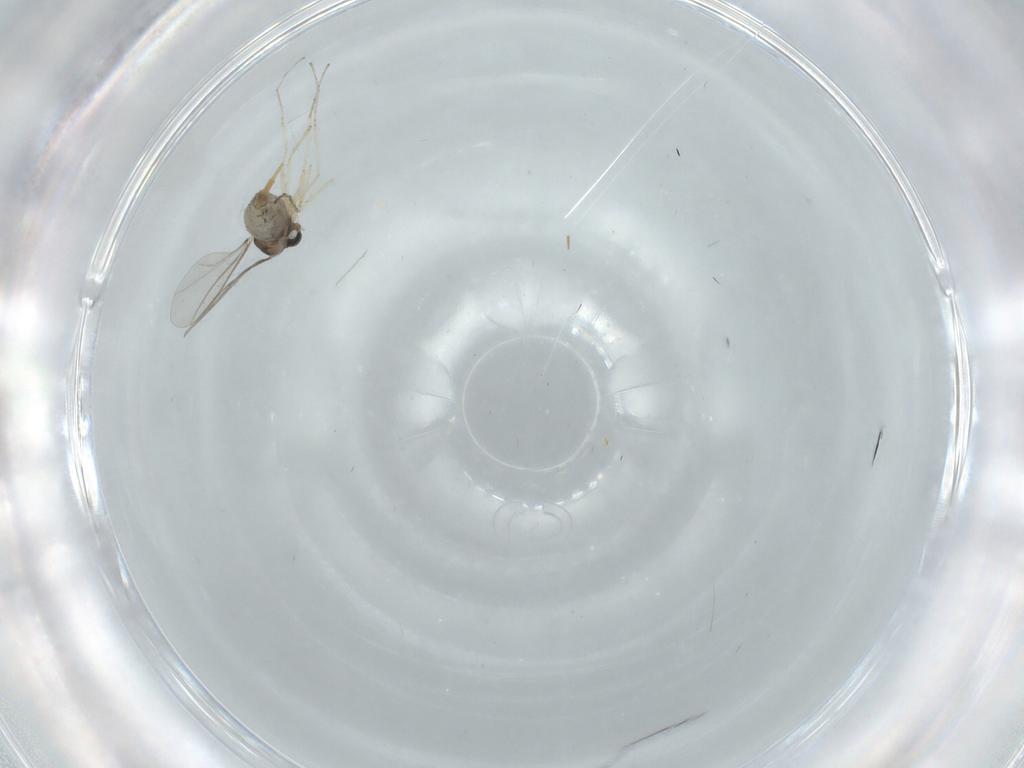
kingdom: Animalia
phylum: Arthropoda
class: Insecta
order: Diptera
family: Cecidomyiidae
